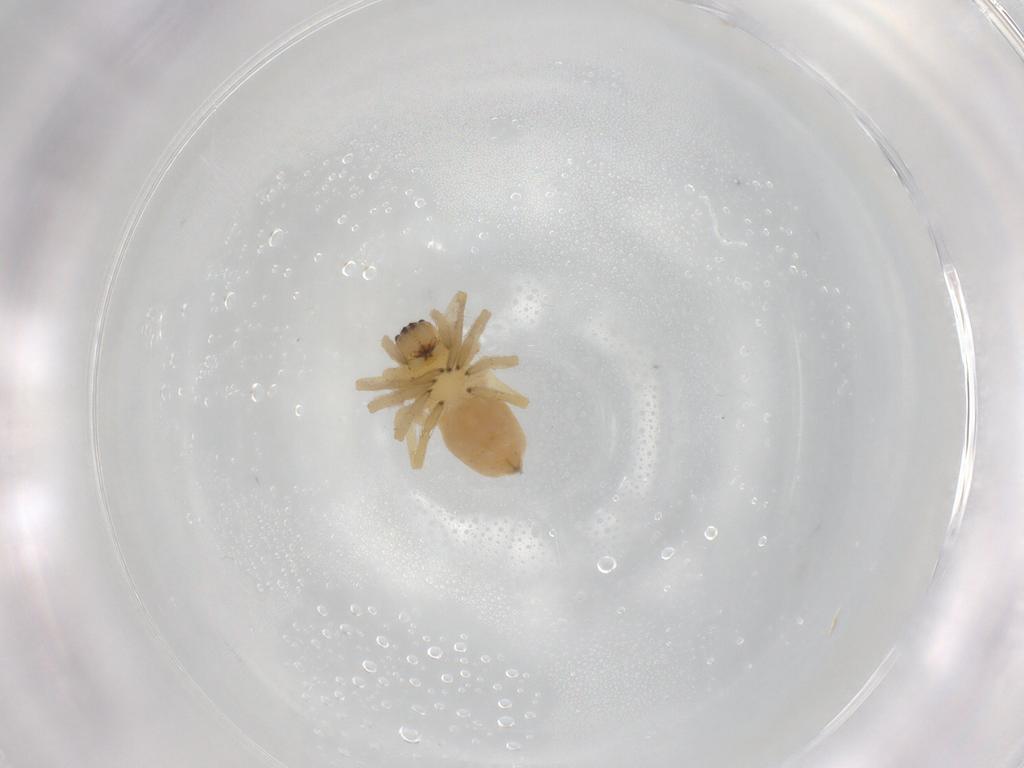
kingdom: Animalia
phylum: Arthropoda
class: Arachnida
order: Araneae
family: Cheiracanthiidae
